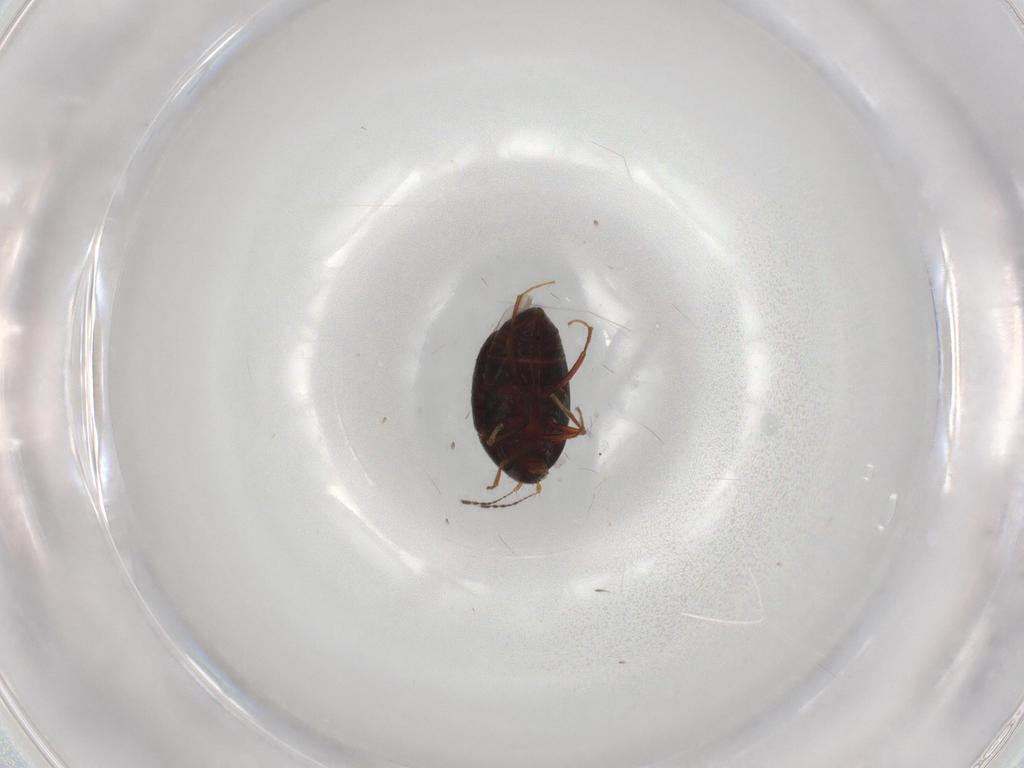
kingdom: Animalia
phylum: Arthropoda
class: Insecta
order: Coleoptera
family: Staphylinidae
